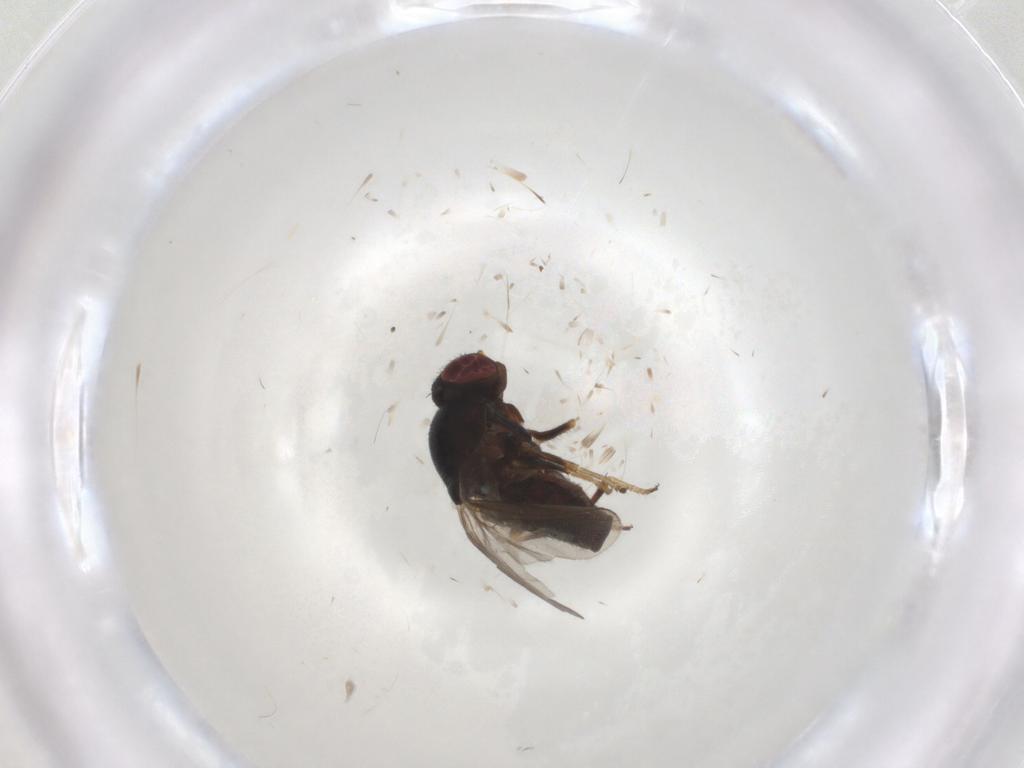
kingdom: Animalia
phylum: Arthropoda
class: Insecta
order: Diptera
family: Chloropidae
